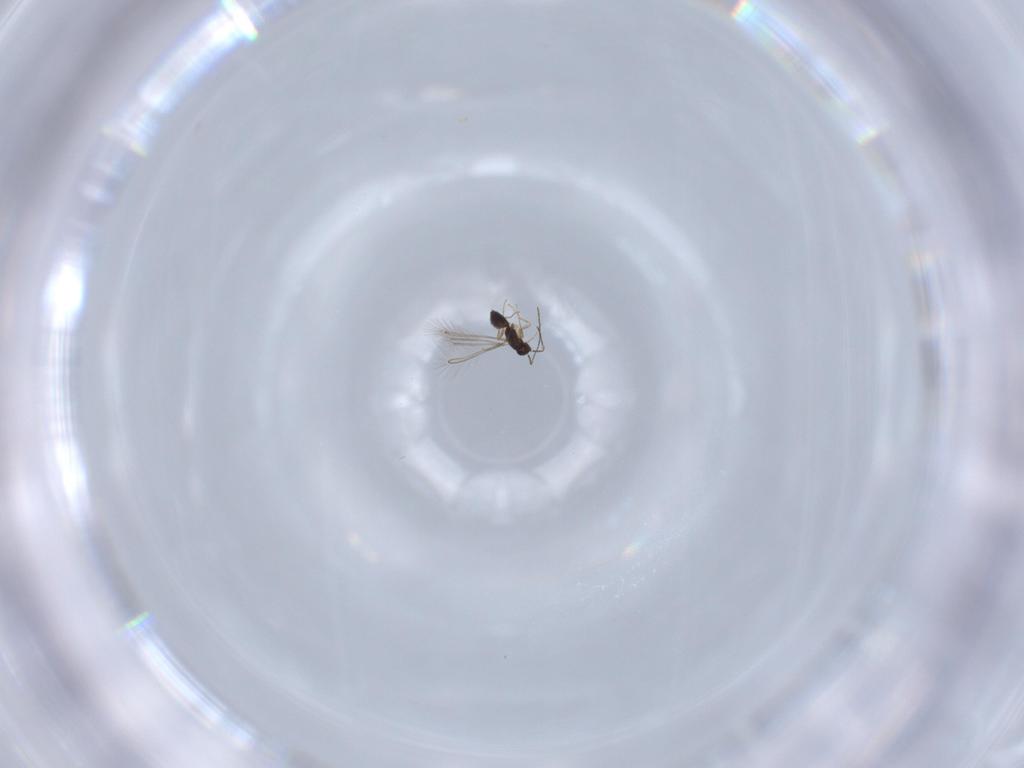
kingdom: Animalia
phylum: Arthropoda
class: Insecta
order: Hymenoptera
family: Mymaridae
